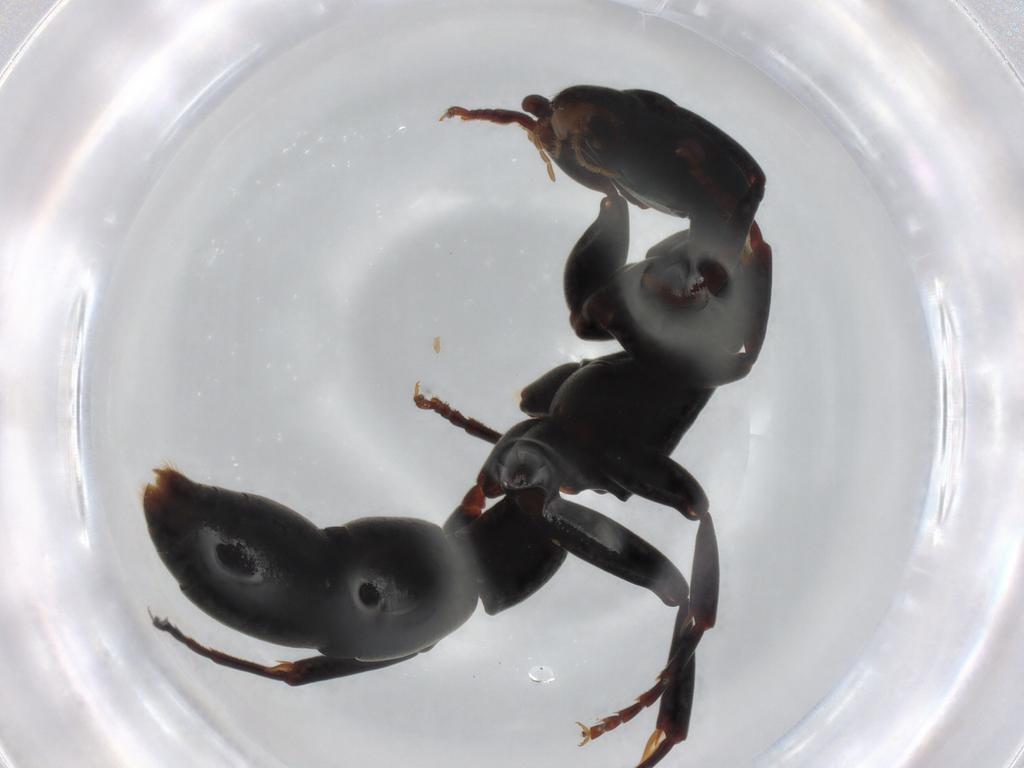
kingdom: Animalia
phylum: Arthropoda
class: Insecta
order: Hymenoptera
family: Formicidae
